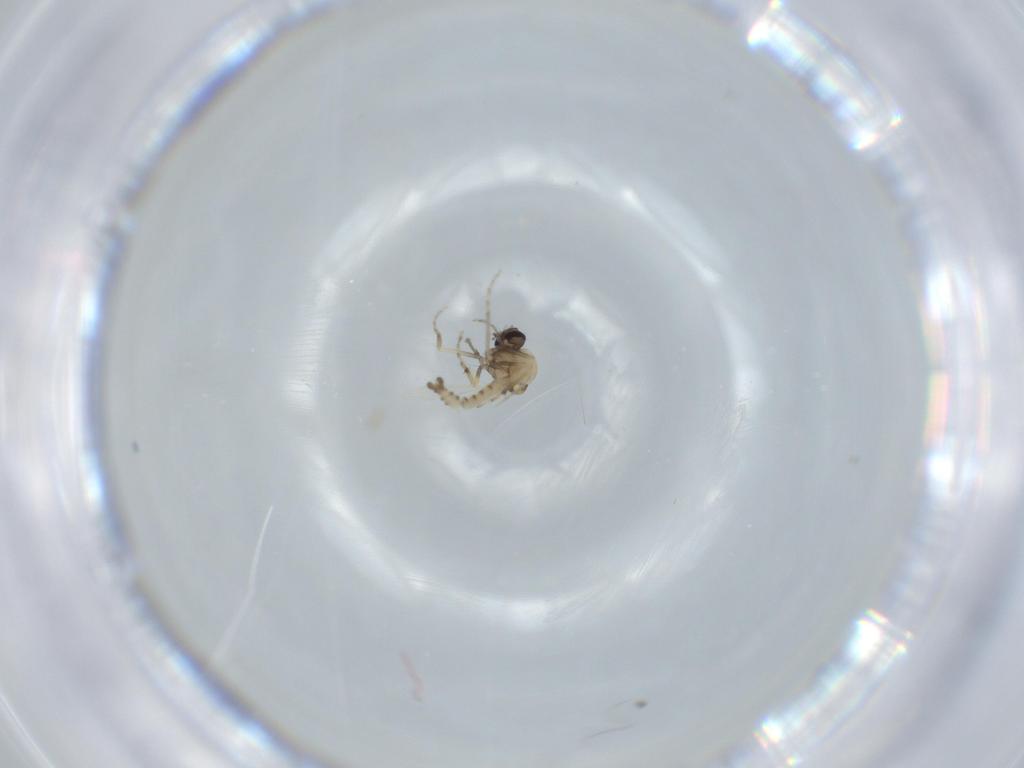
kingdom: Animalia
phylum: Arthropoda
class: Insecta
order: Diptera
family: Ceratopogonidae
